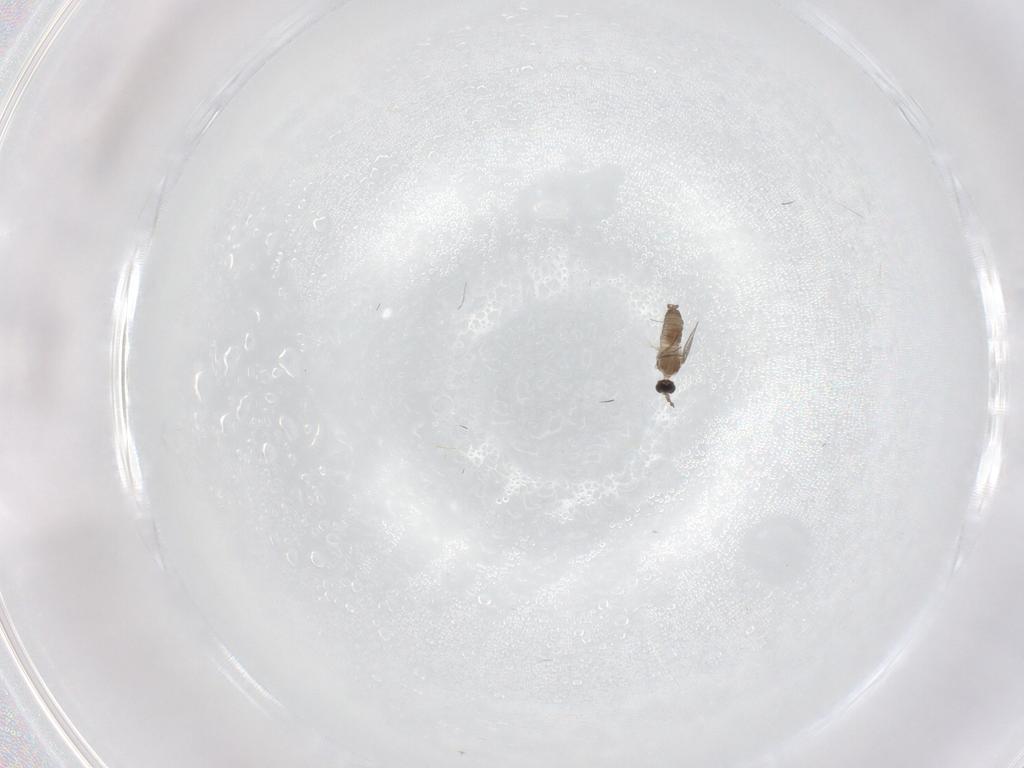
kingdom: Animalia
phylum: Arthropoda
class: Insecta
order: Diptera
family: Cecidomyiidae
